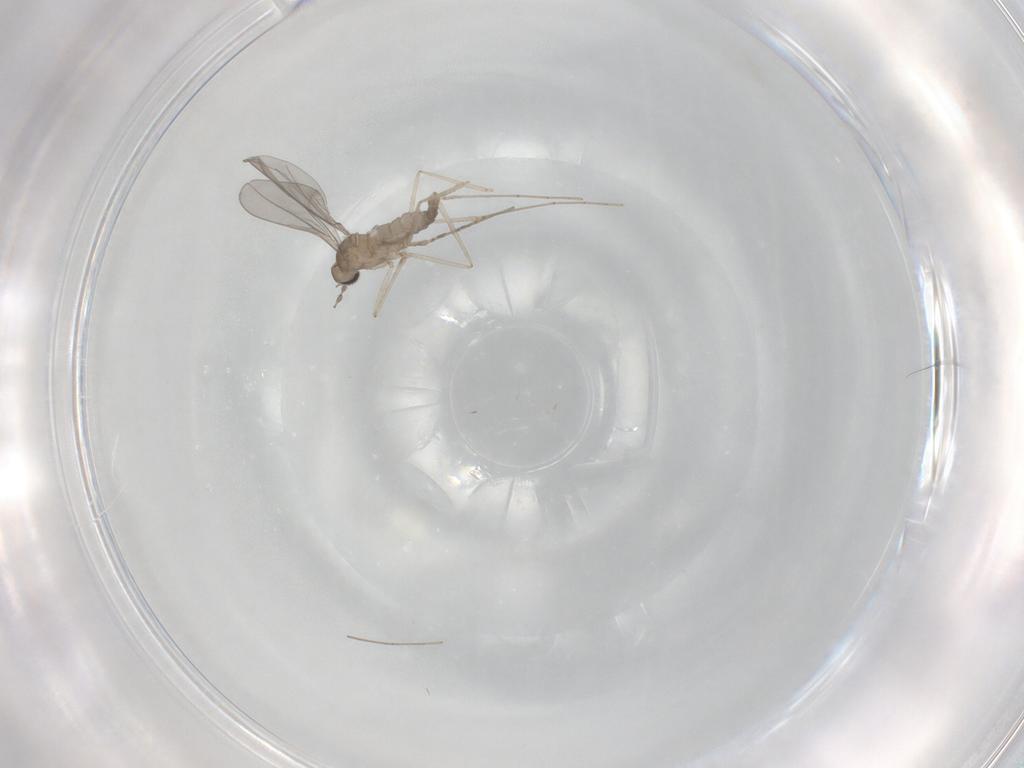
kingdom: Animalia
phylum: Arthropoda
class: Insecta
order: Diptera
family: Cecidomyiidae
